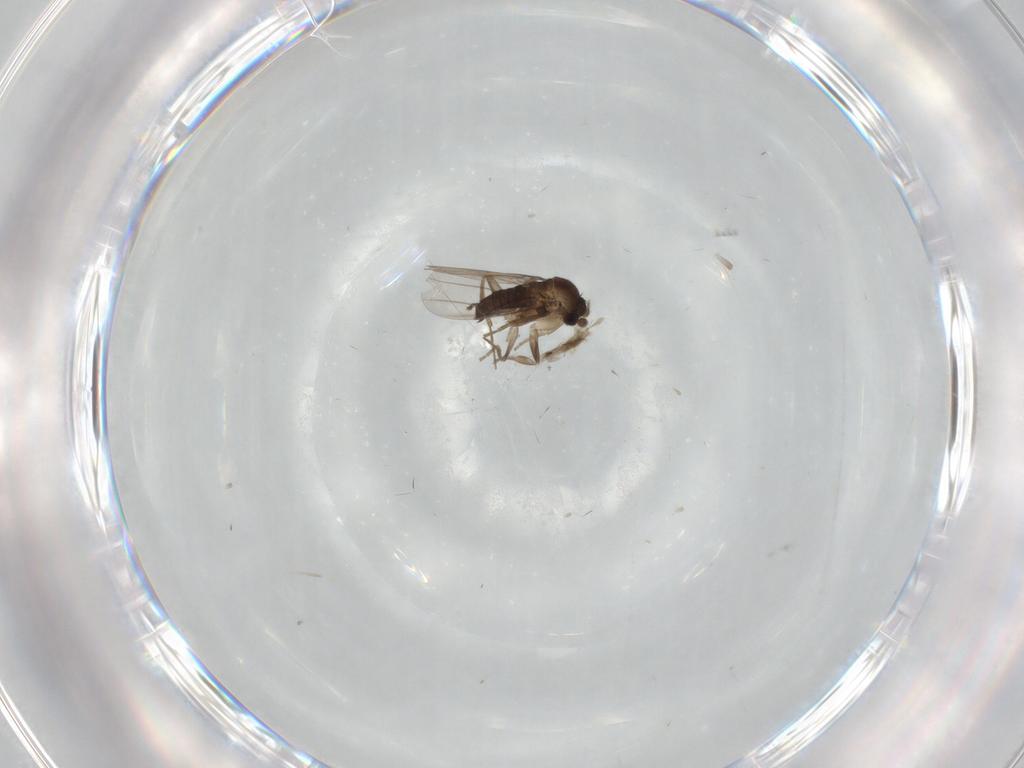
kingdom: Animalia
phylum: Arthropoda
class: Insecta
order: Diptera
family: Phoridae
